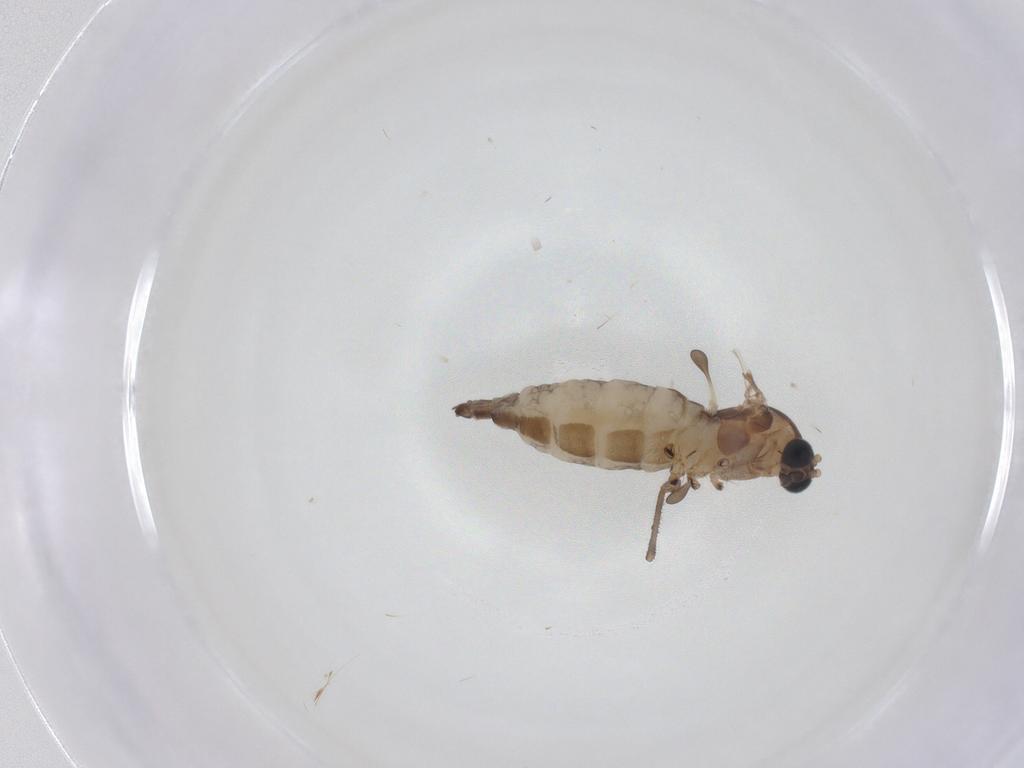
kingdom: Animalia
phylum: Arthropoda
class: Insecta
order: Diptera
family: Sciaridae
